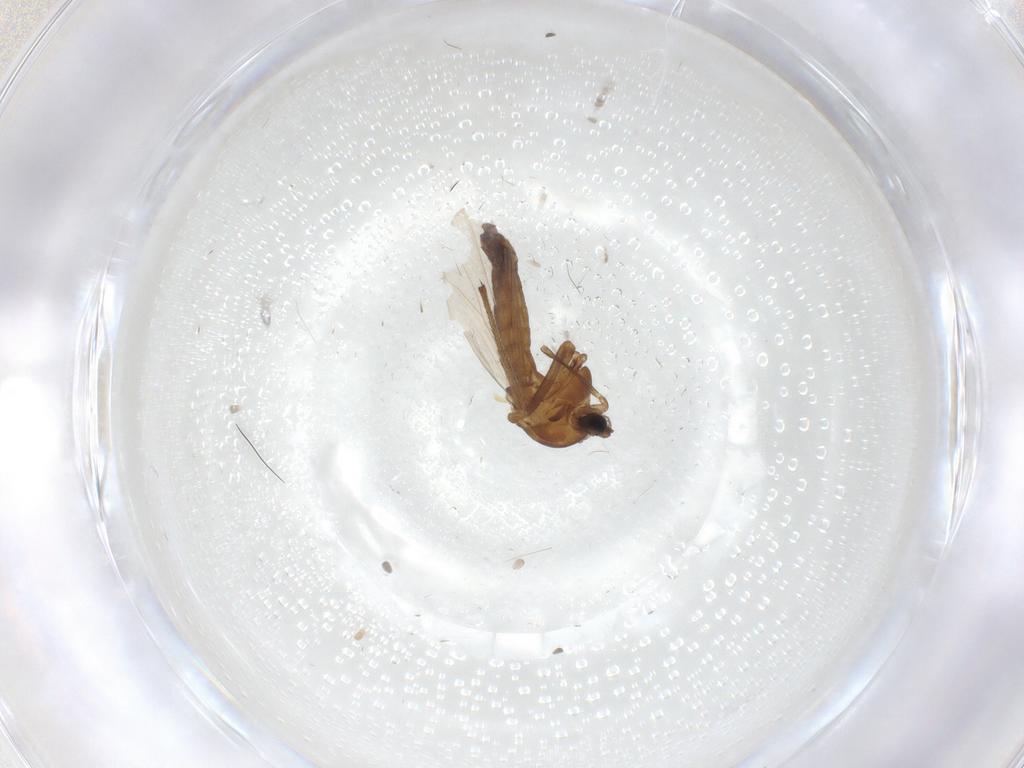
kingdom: Animalia
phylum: Arthropoda
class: Insecta
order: Diptera
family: Chironomidae
